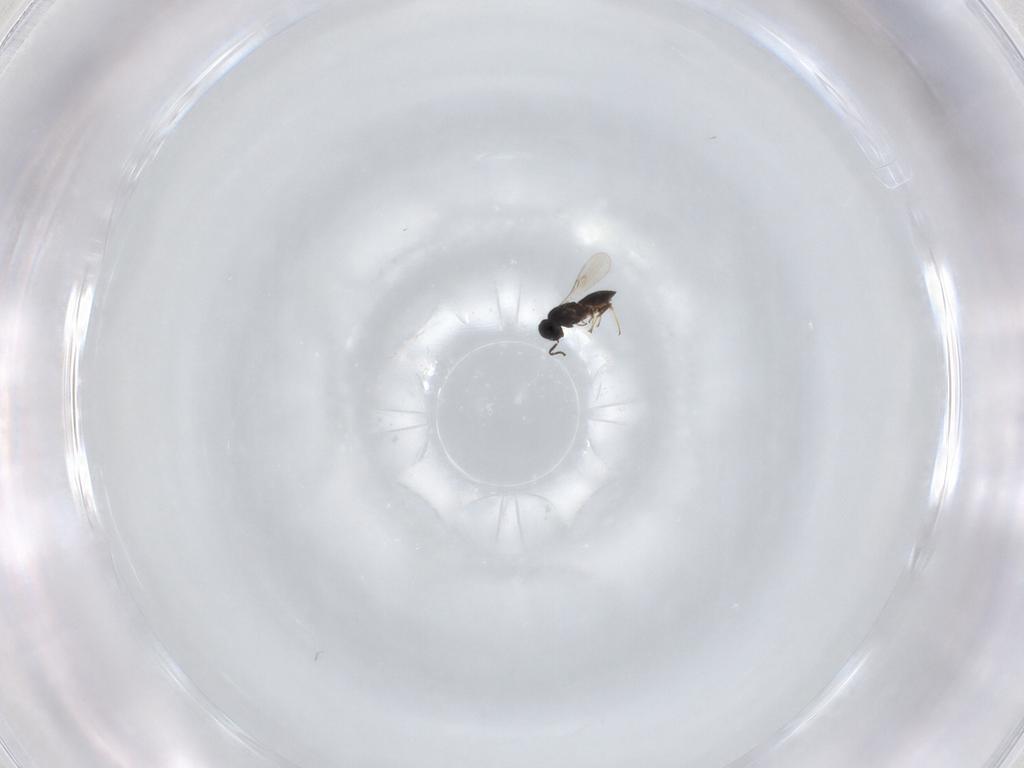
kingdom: Animalia
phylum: Arthropoda
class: Insecta
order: Hymenoptera
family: Scelionidae
